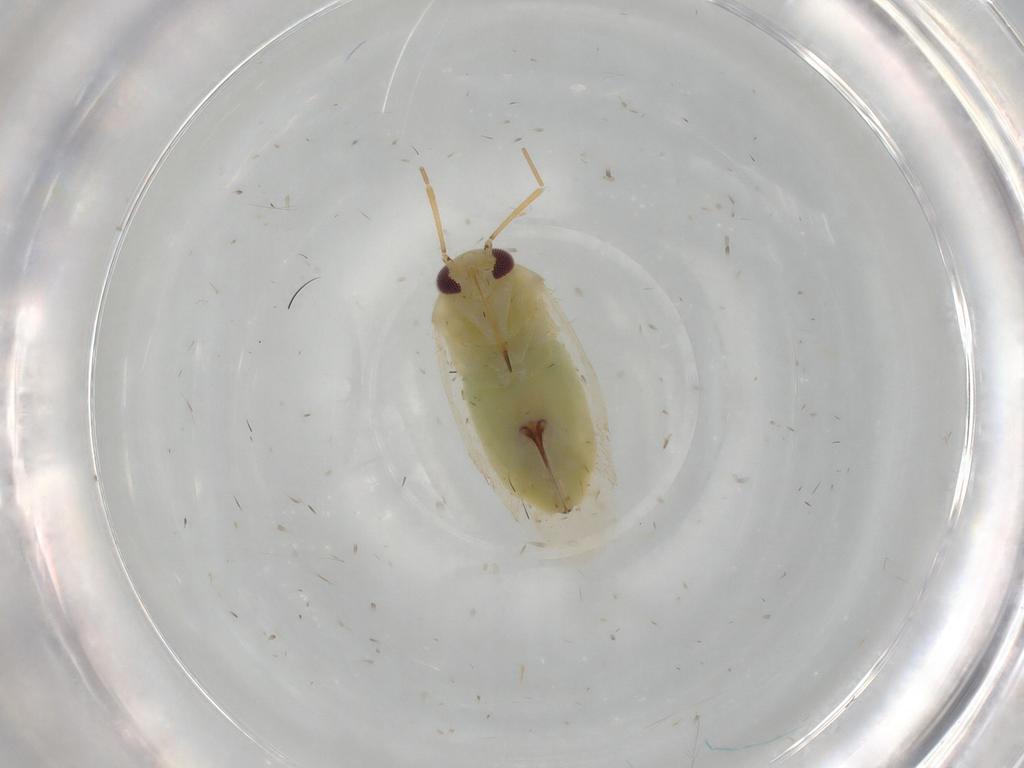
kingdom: Animalia
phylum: Arthropoda
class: Insecta
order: Hemiptera
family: Miridae
